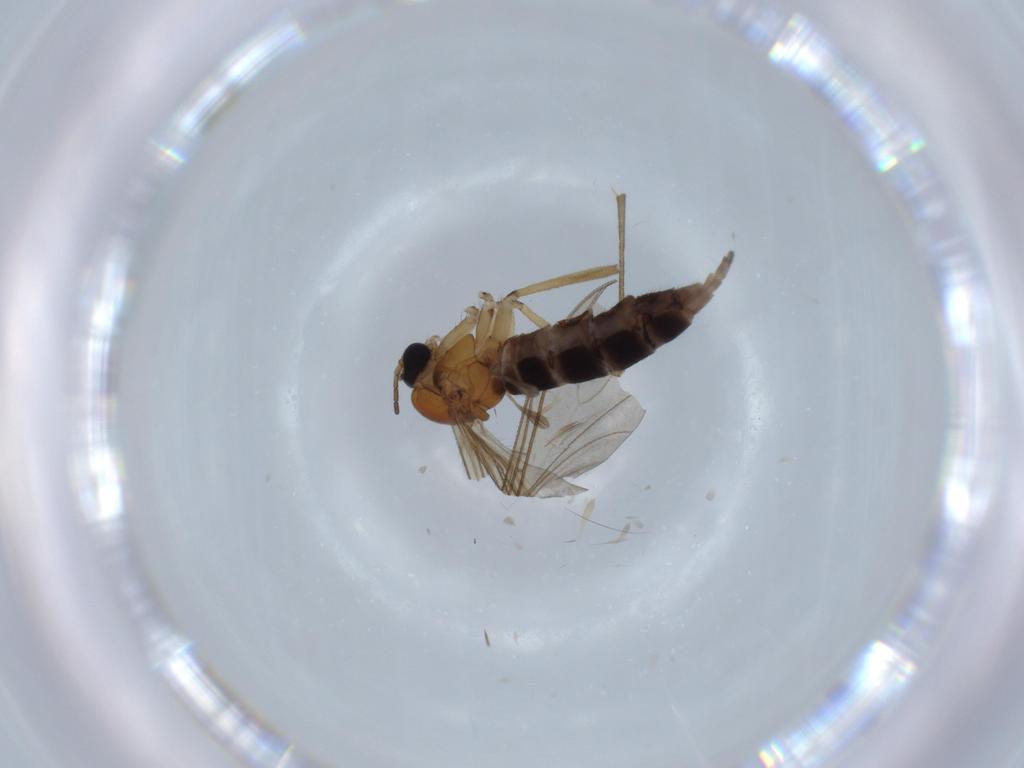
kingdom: Animalia
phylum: Arthropoda
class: Insecta
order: Diptera
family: Sciaridae
